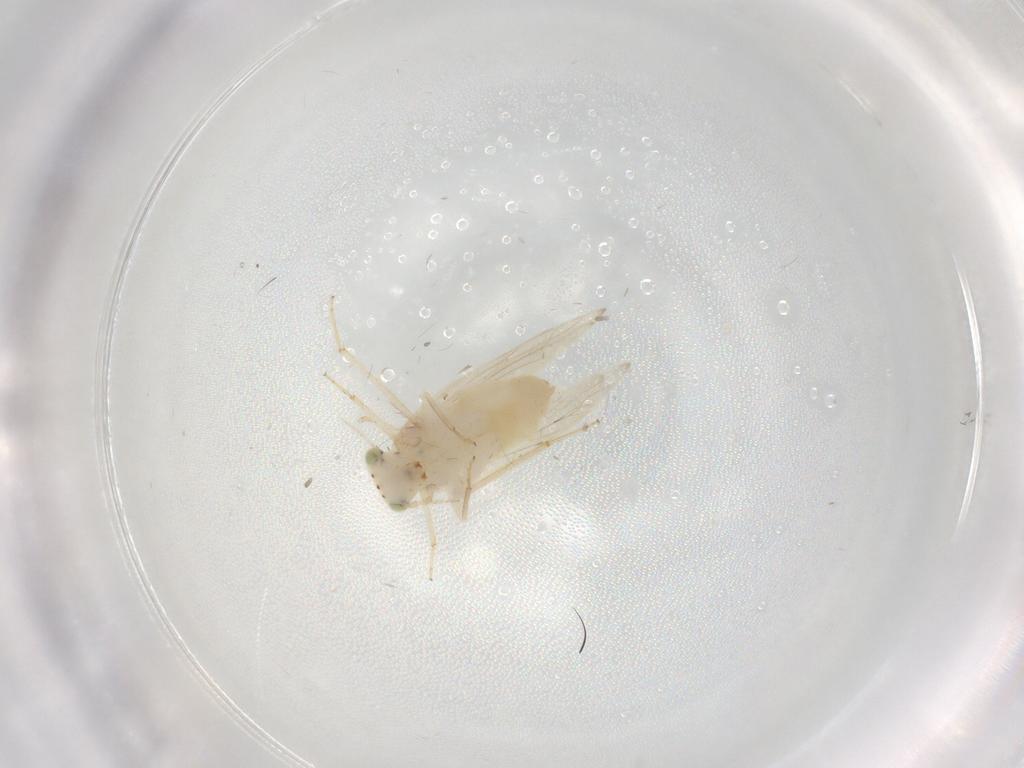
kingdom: Animalia
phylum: Arthropoda
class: Insecta
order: Psocodea
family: Lepidopsocidae
